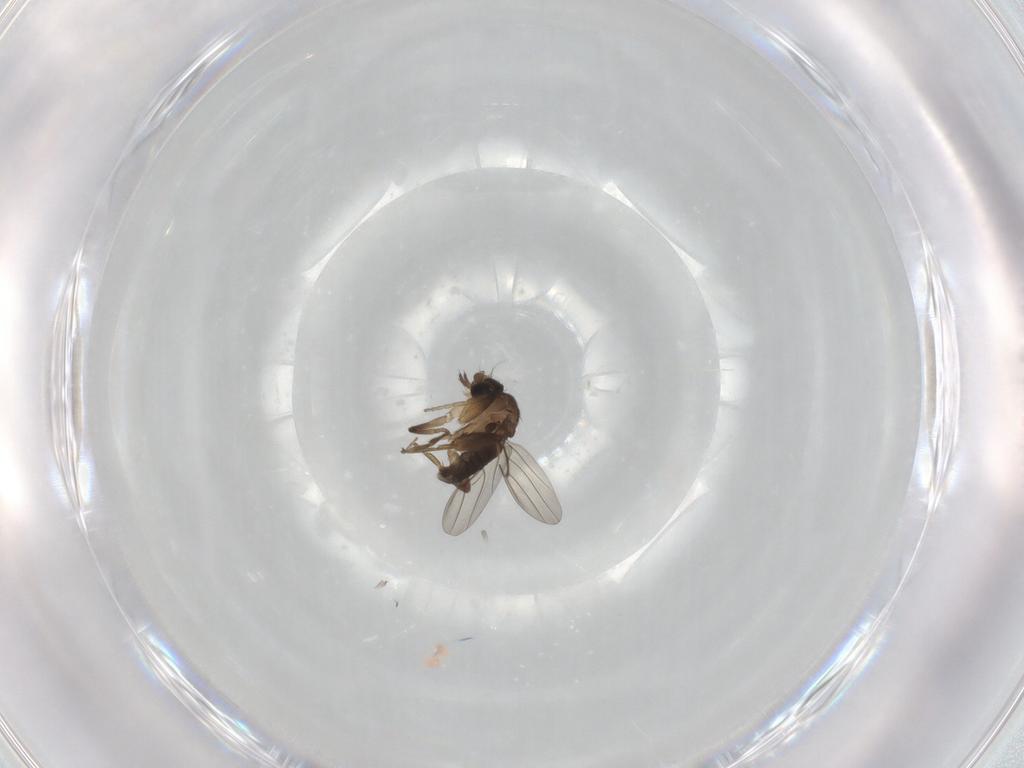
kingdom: Animalia
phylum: Arthropoda
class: Insecta
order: Diptera
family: Phoridae
